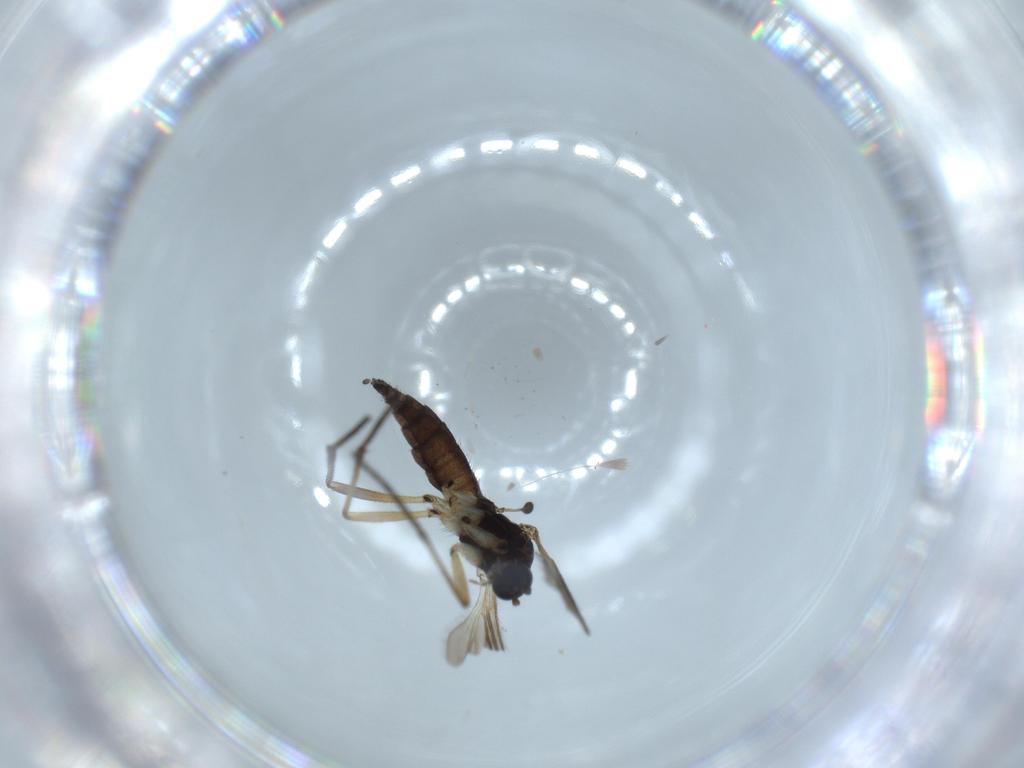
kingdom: Animalia
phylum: Arthropoda
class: Insecta
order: Diptera
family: Sciaridae
